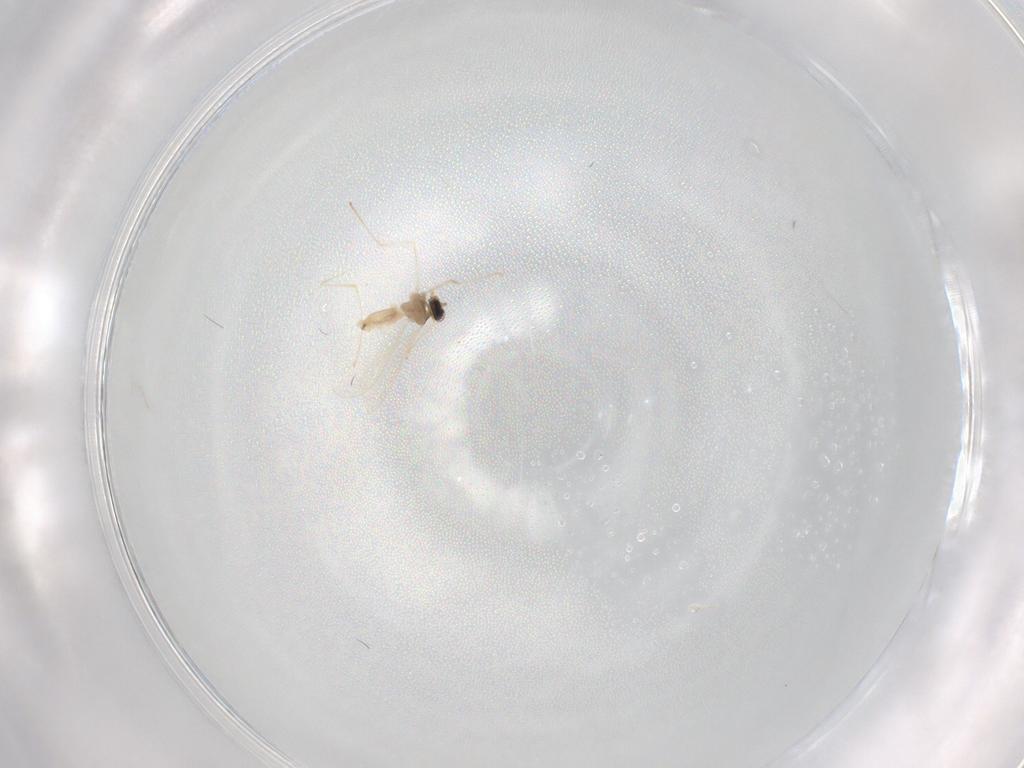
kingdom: Animalia
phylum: Arthropoda
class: Insecta
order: Diptera
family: Cecidomyiidae
